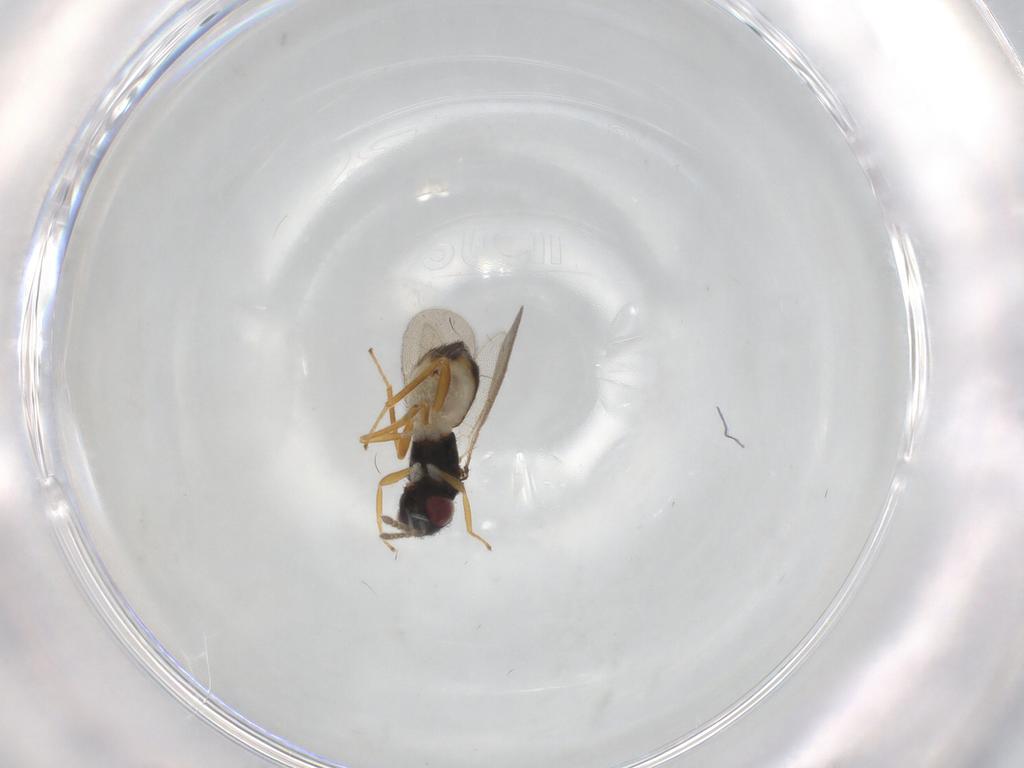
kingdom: Animalia
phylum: Arthropoda
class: Insecta
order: Hymenoptera
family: Eulophidae
